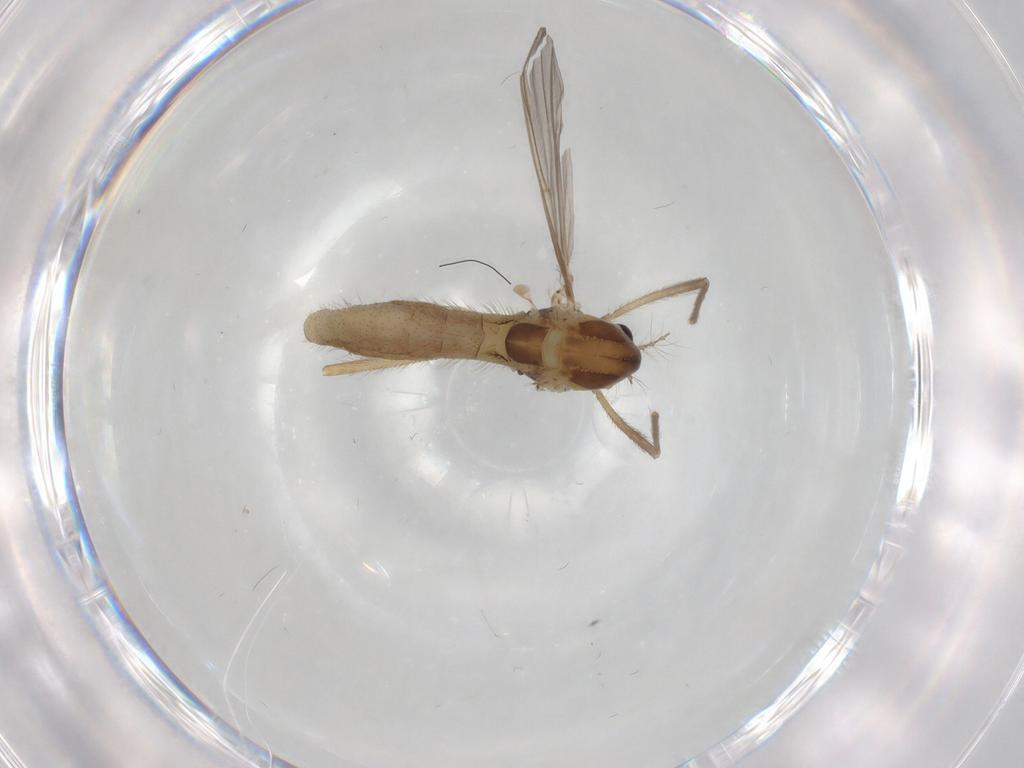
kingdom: Animalia
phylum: Arthropoda
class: Insecta
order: Diptera
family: Chironomidae
